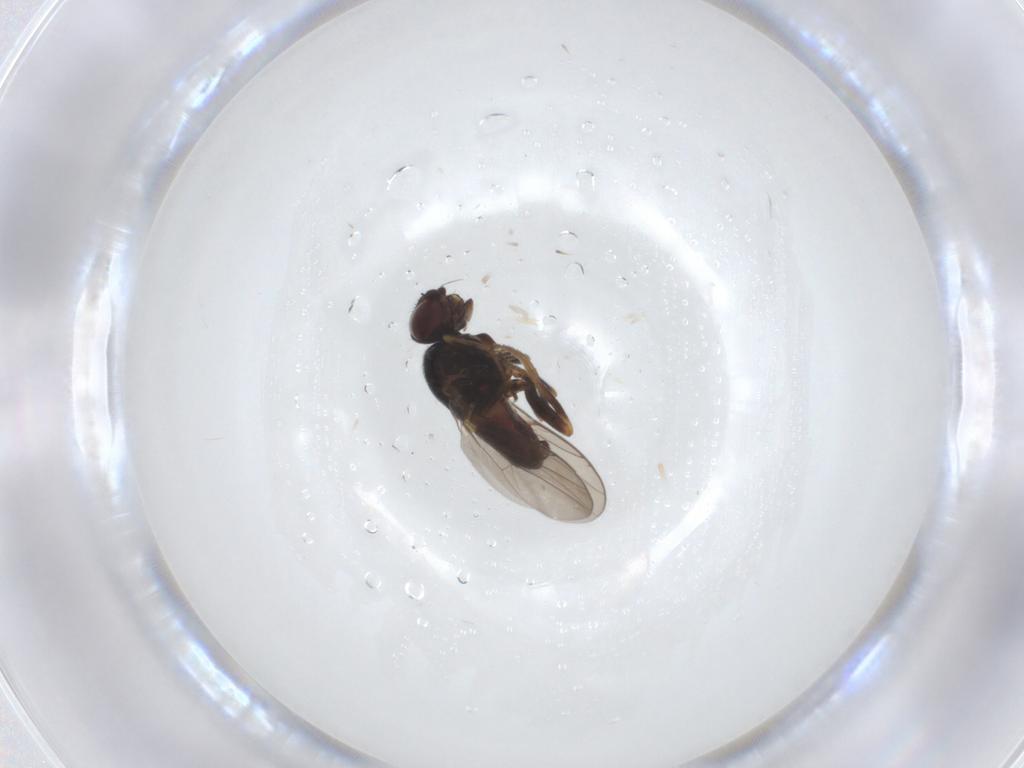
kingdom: Animalia
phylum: Arthropoda
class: Insecta
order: Diptera
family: Chloropidae
